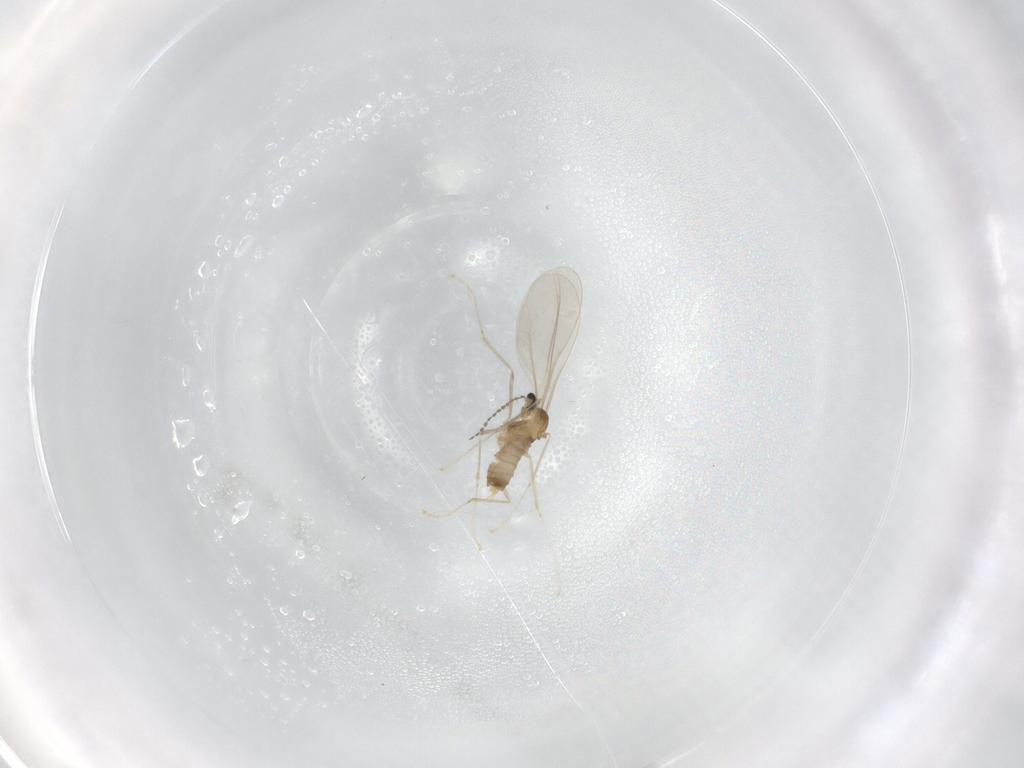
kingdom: Animalia
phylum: Arthropoda
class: Insecta
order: Diptera
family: Cecidomyiidae
